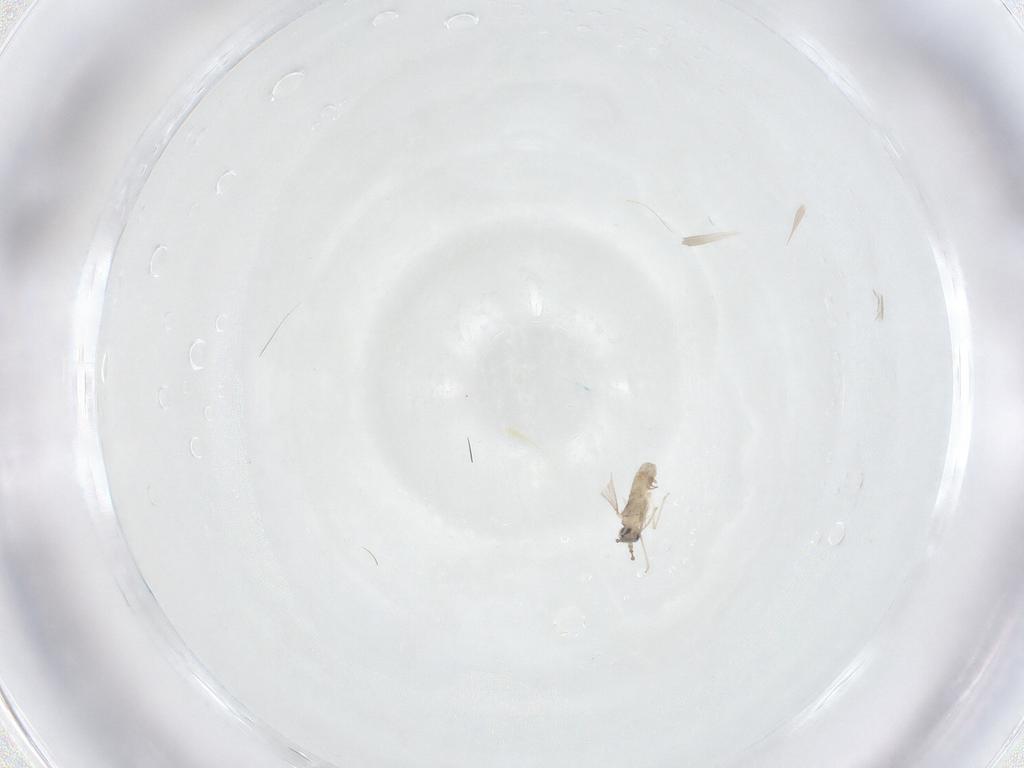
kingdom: Animalia
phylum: Arthropoda
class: Insecta
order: Diptera
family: Cecidomyiidae
